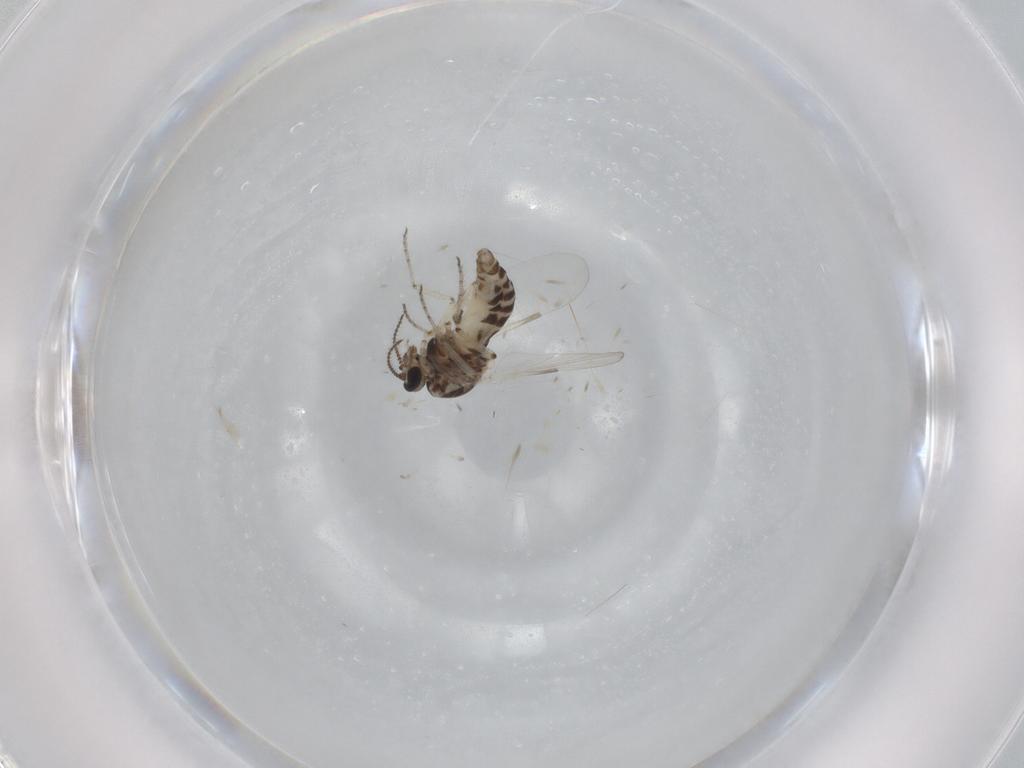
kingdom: Animalia
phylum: Arthropoda
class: Insecta
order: Diptera
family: Ceratopogonidae
